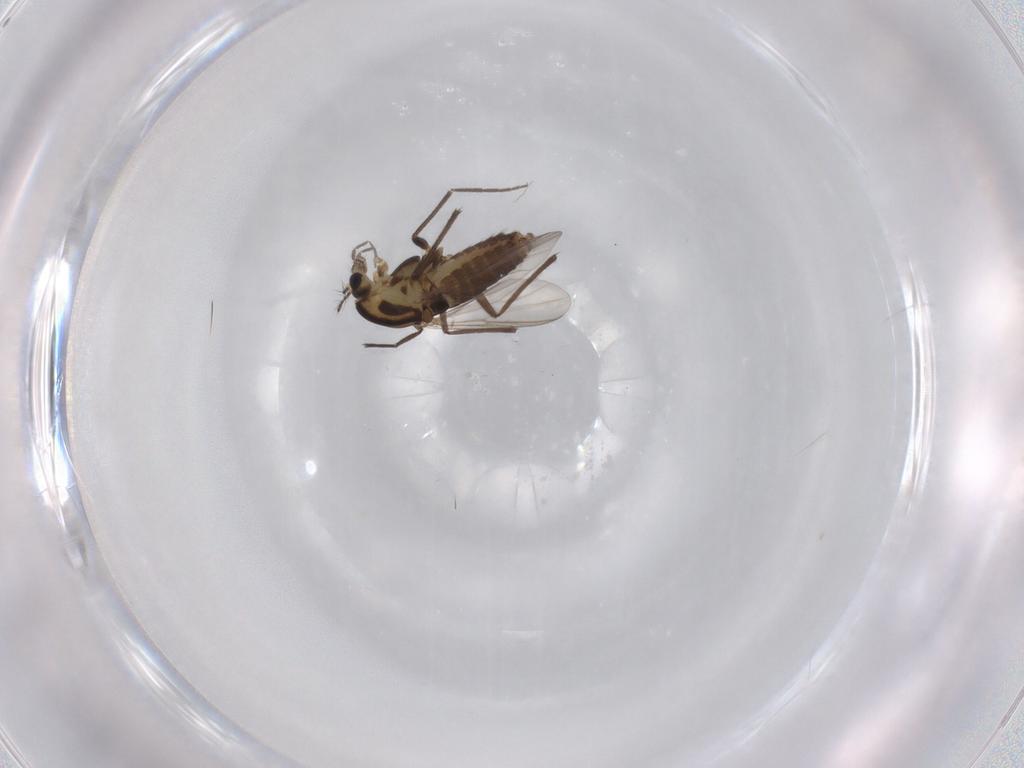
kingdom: Animalia
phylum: Arthropoda
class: Insecta
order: Diptera
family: Chironomidae
